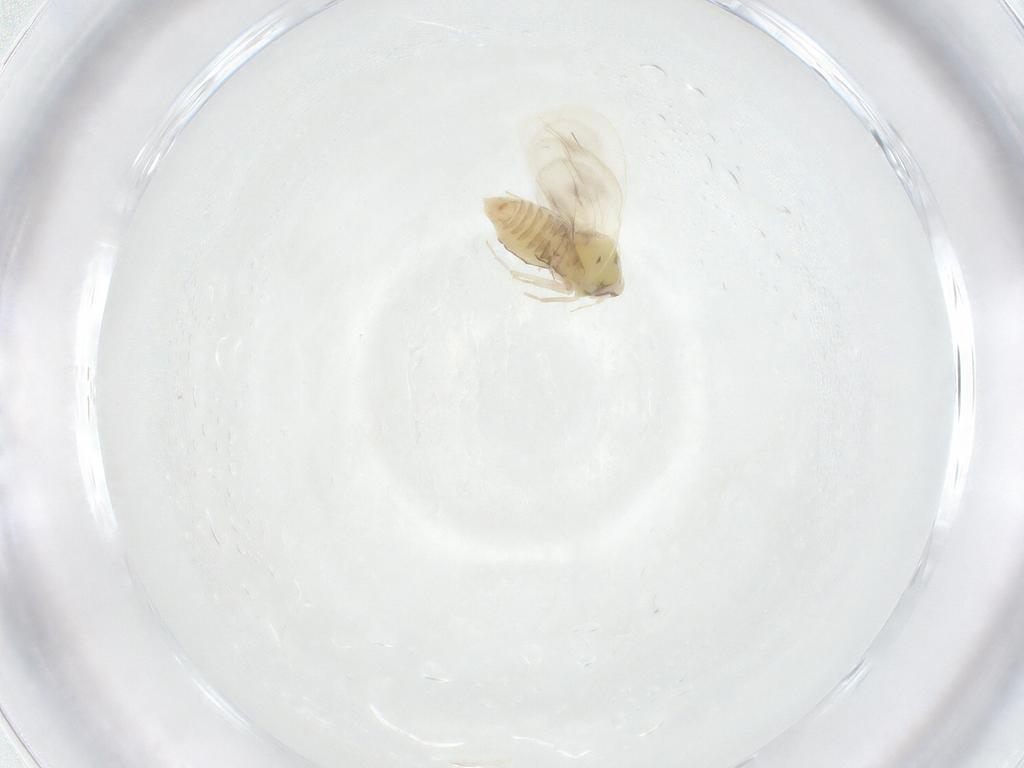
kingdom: Animalia
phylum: Arthropoda
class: Insecta
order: Hemiptera
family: Aleyrodidae
